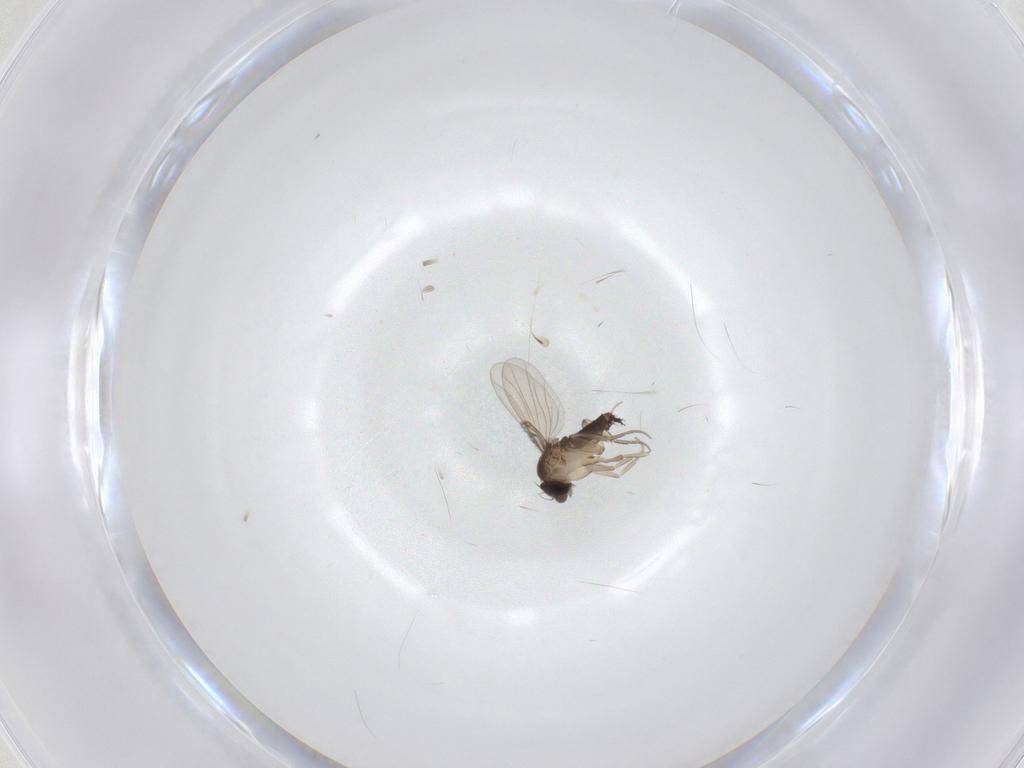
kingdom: Animalia
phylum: Arthropoda
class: Insecta
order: Diptera
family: Phoridae
